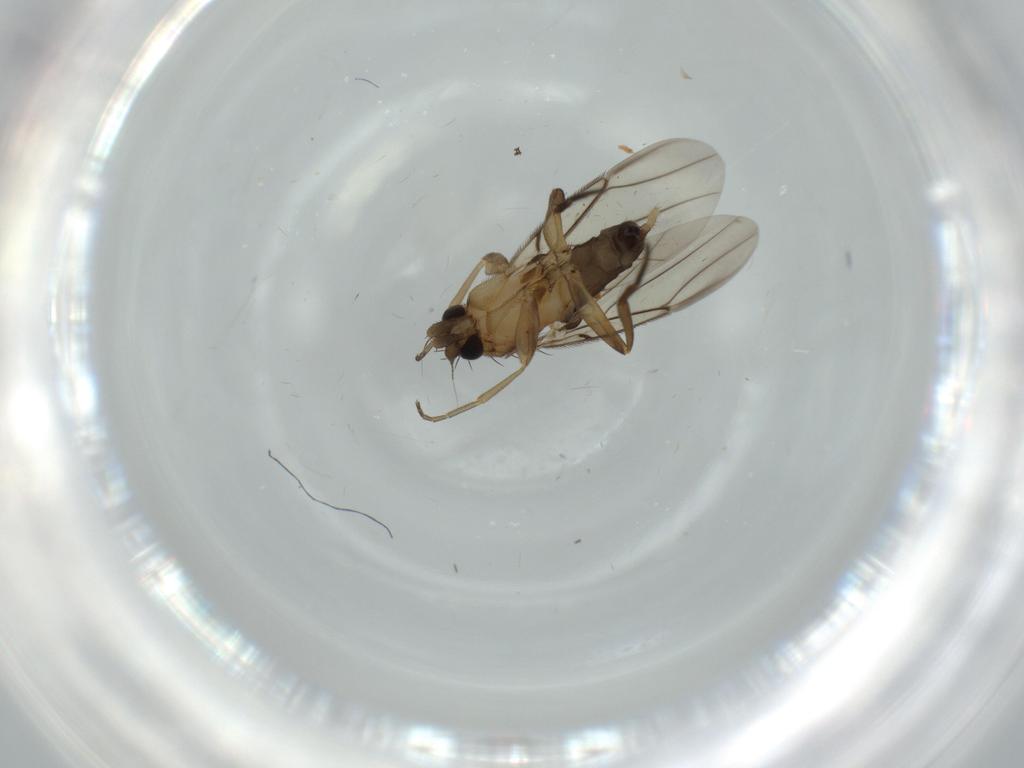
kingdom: Animalia
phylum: Arthropoda
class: Insecta
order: Diptera
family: Phoridae
